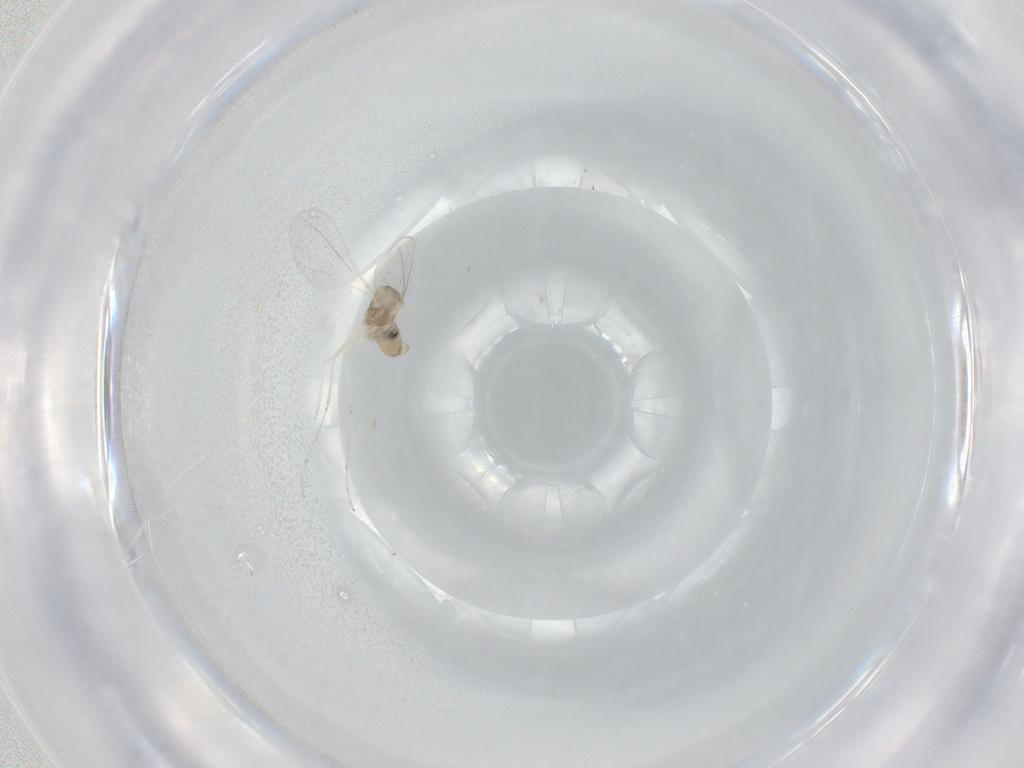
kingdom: Animalia
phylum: Arthropoda
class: Insecta
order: Diptera
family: Cecidomyiidae
